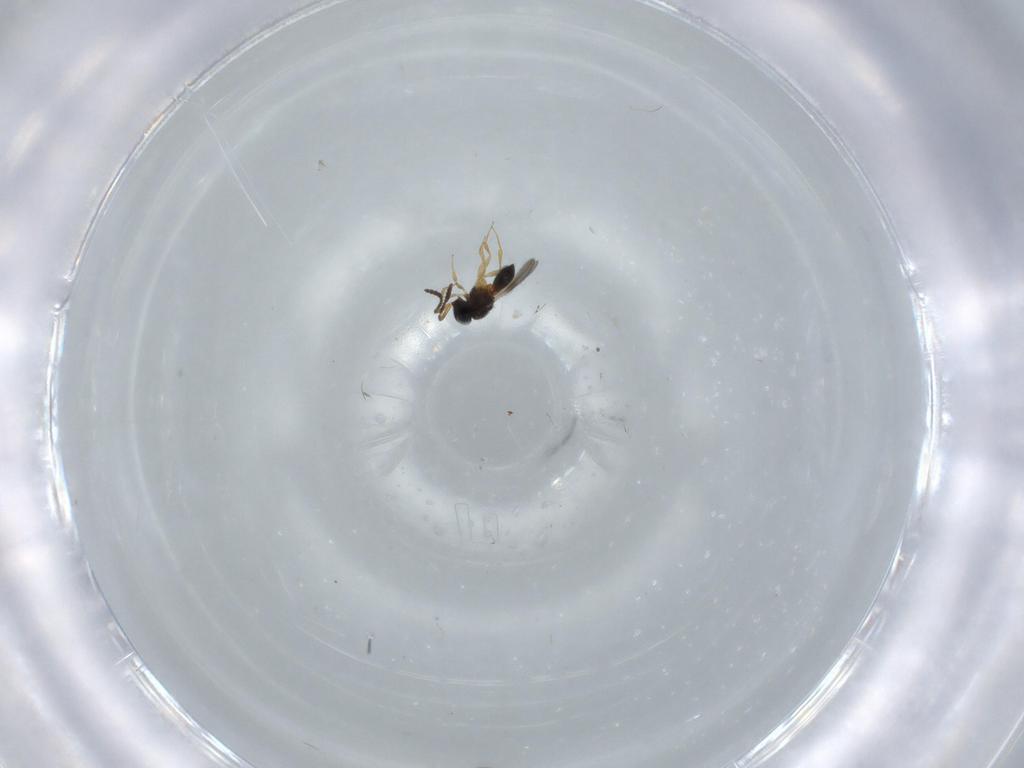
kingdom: Animalia
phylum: Arthropoda
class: Insecta
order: Hymenoptera
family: Scelionidae
